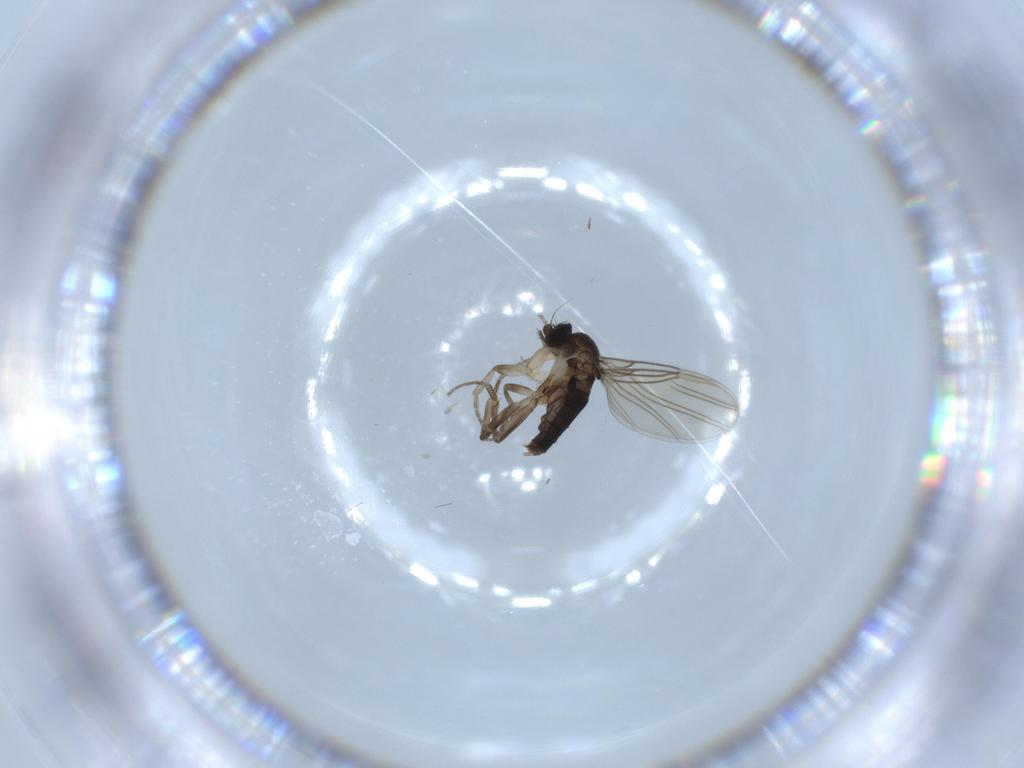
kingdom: Animalia
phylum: Arthropoda
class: Insecta
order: Diptera
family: Phoridae
